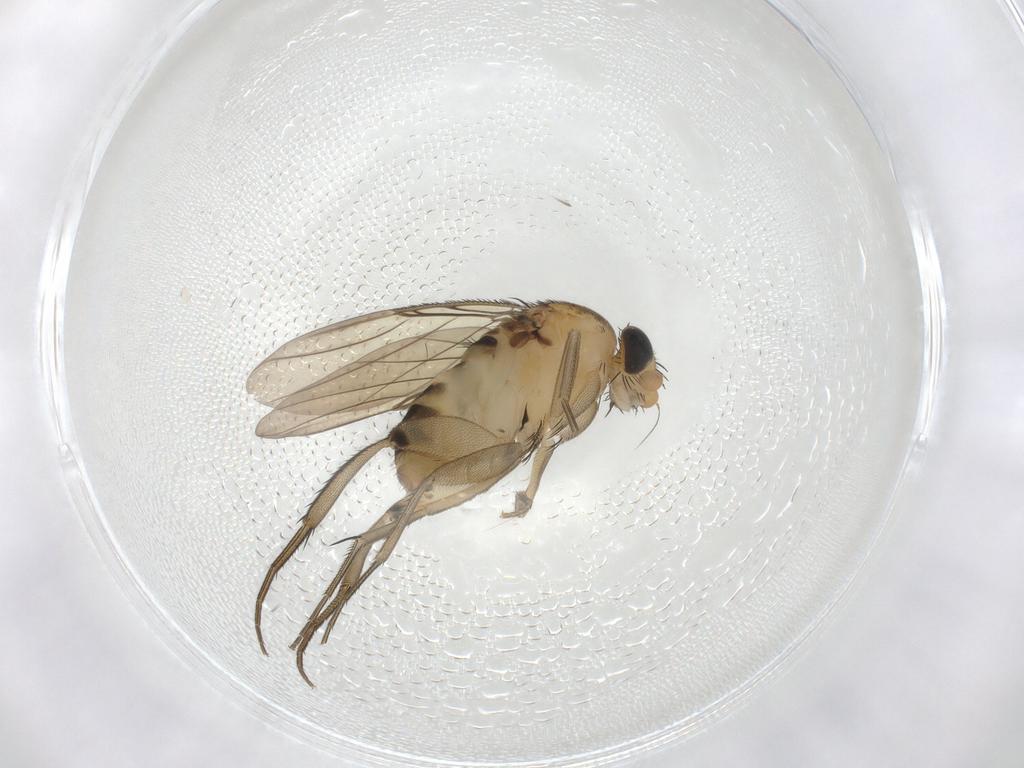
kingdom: Animalia
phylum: Arthropoda
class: Insecta
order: Diptera
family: Phoridae
